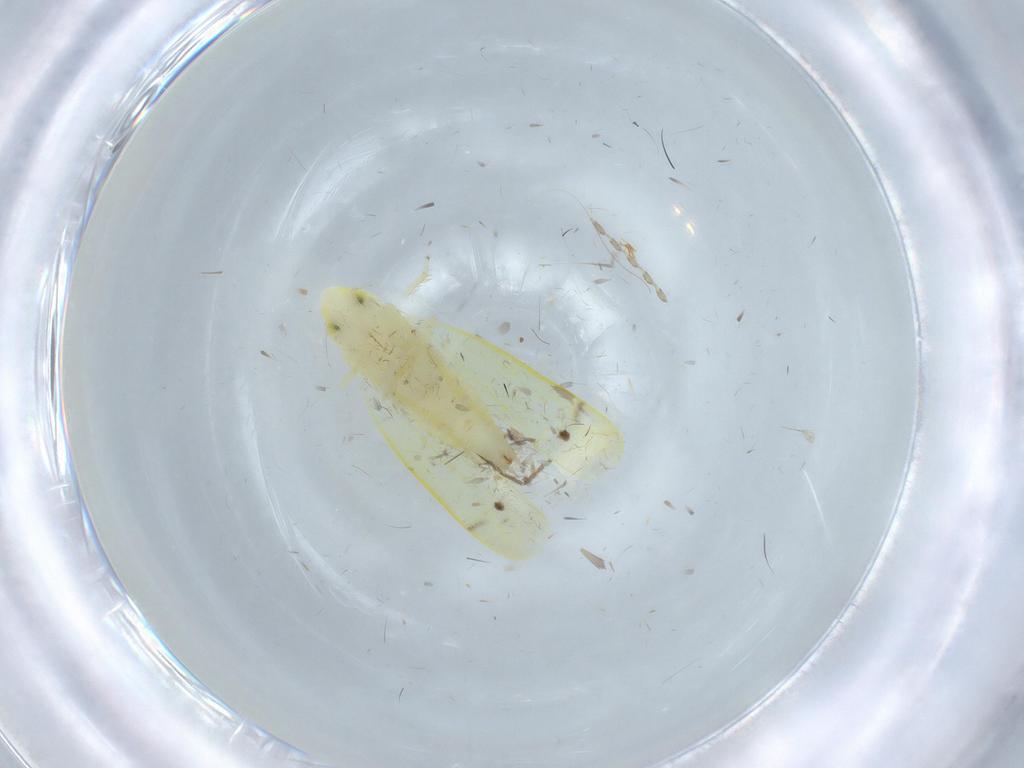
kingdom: Animalia
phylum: Arthropoda
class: Insecta
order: Hemiptera
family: Cicadellidae
